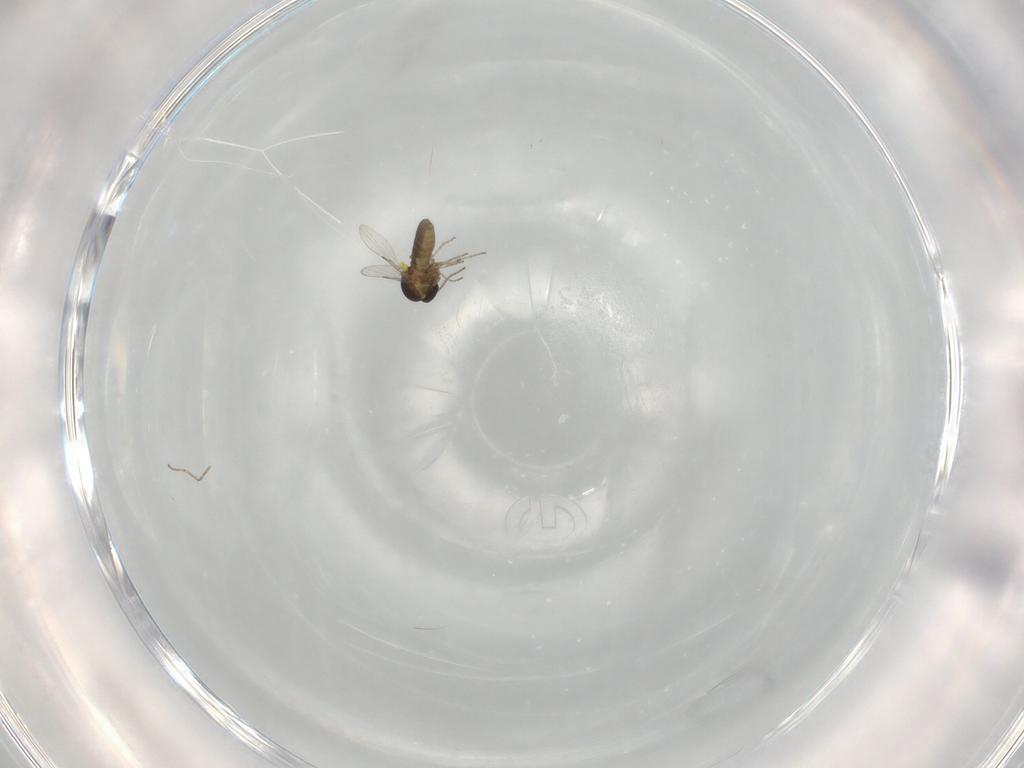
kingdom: Animalia
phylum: Arthropoda
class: Insecta
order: Diptera
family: Ceratopogonidae
